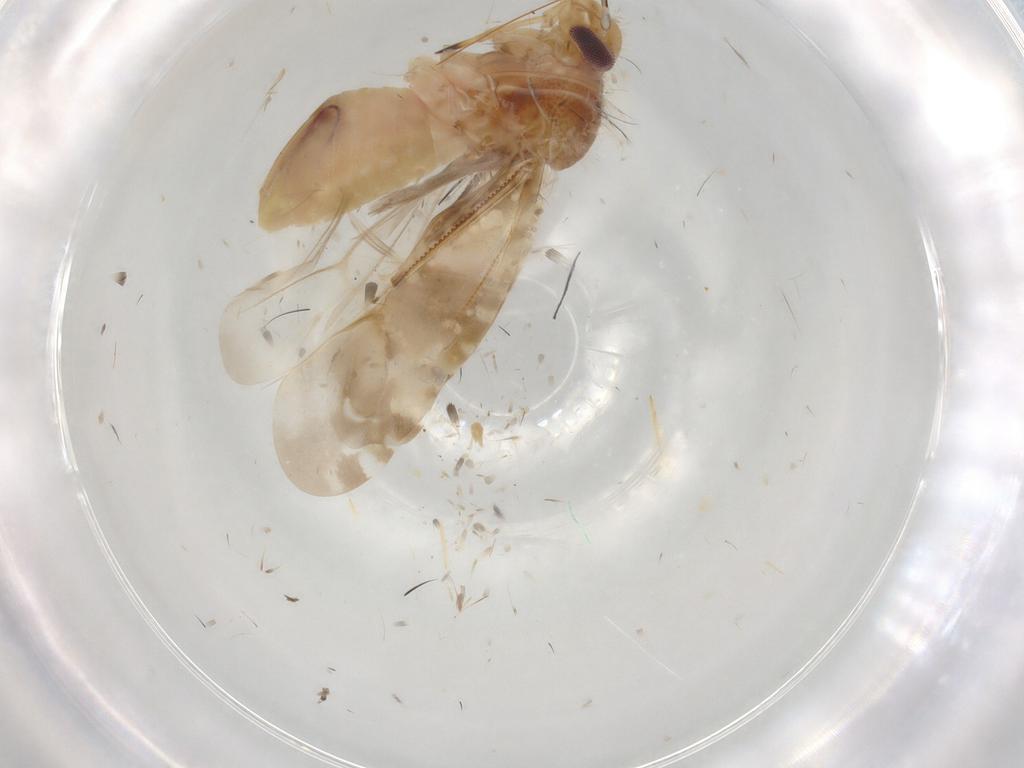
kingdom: Animalia
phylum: Arthropoda
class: Insecta
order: Hemiptera
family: Miridae
